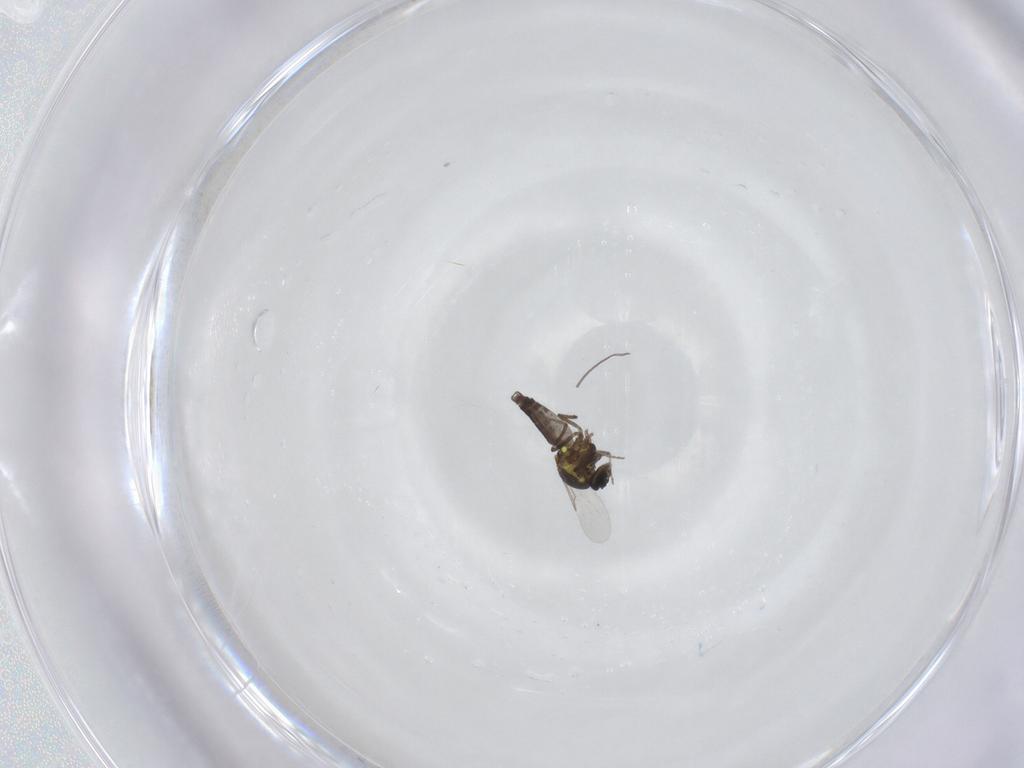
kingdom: Animalia
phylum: Arthropoda
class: Insecta
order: Diptera
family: Ceratopogonidae
